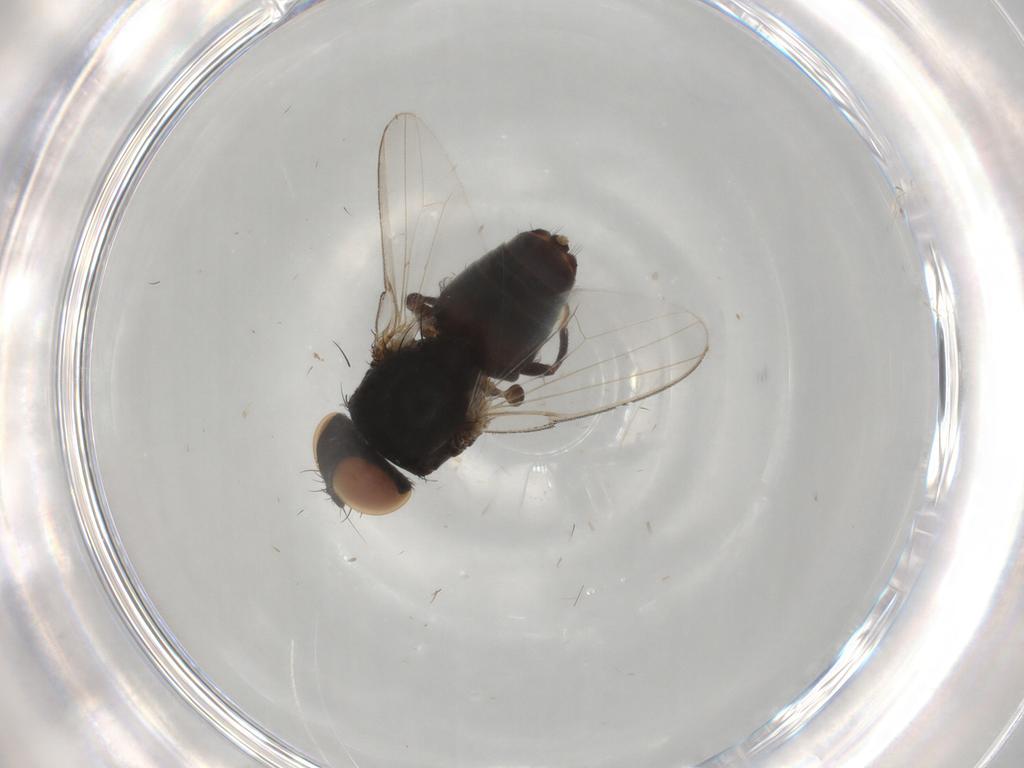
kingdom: Animalia
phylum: Arthropoda
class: Insecta
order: Diptera
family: Milichiidae
